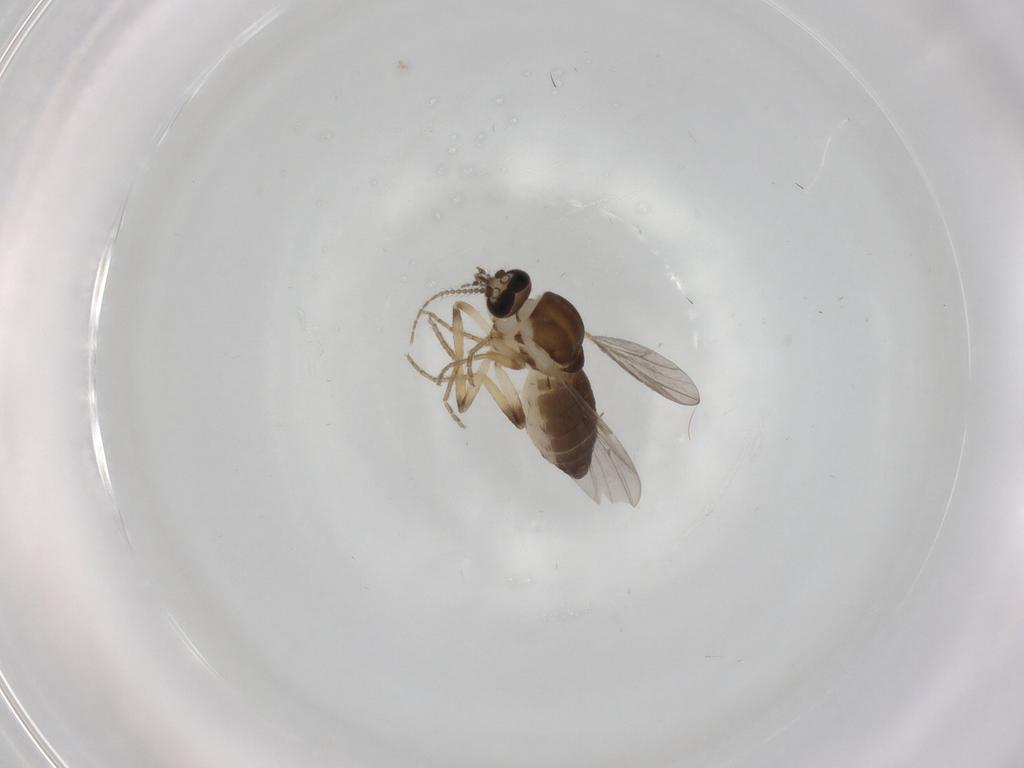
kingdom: Animalia
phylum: Arthropoda
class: Insecta
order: Diptera
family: Ceratopogonidae
